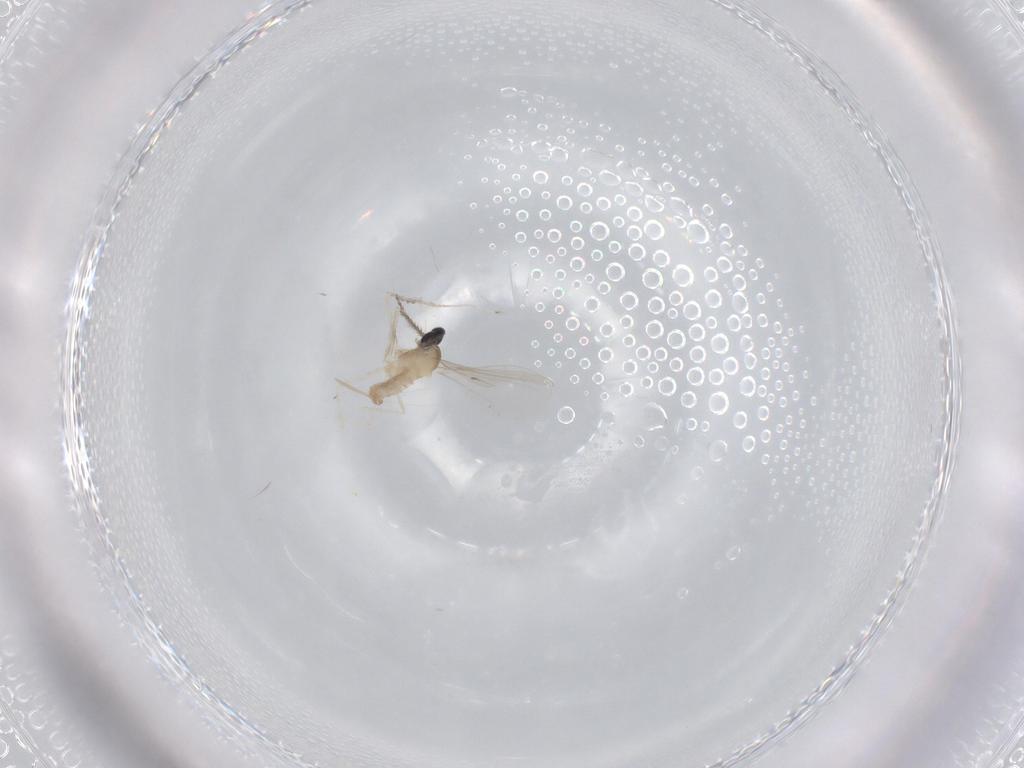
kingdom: Animalia
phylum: Arthropoda
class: Insecta
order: Diptera
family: Cecidomyiidae
